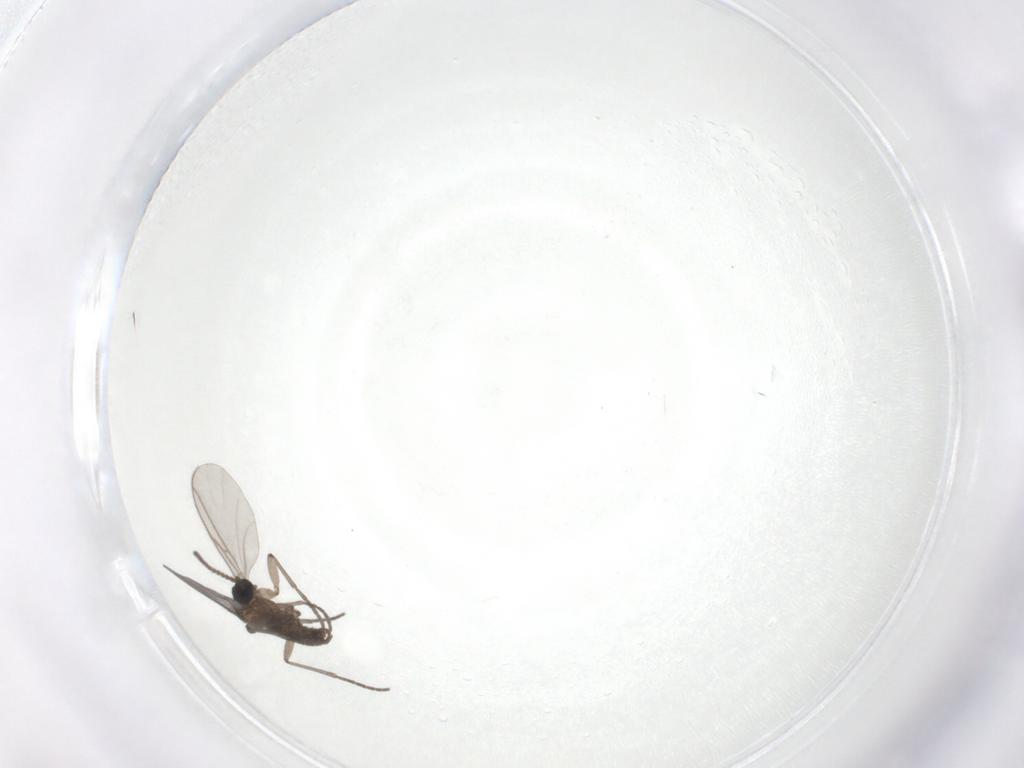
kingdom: Animalia
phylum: Arthropoda
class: Insecta
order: Diptera
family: Sciaridae
